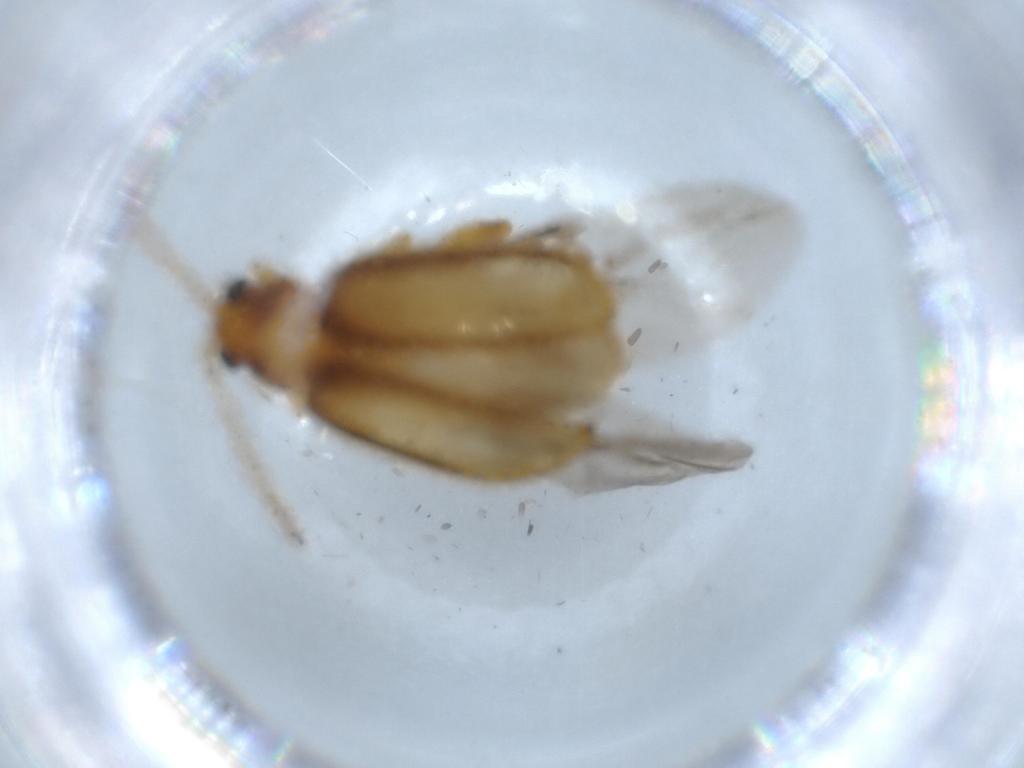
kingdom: Animalia
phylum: Arthropoda
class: Insecta
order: Coleoptera
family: Chrysomelidae
